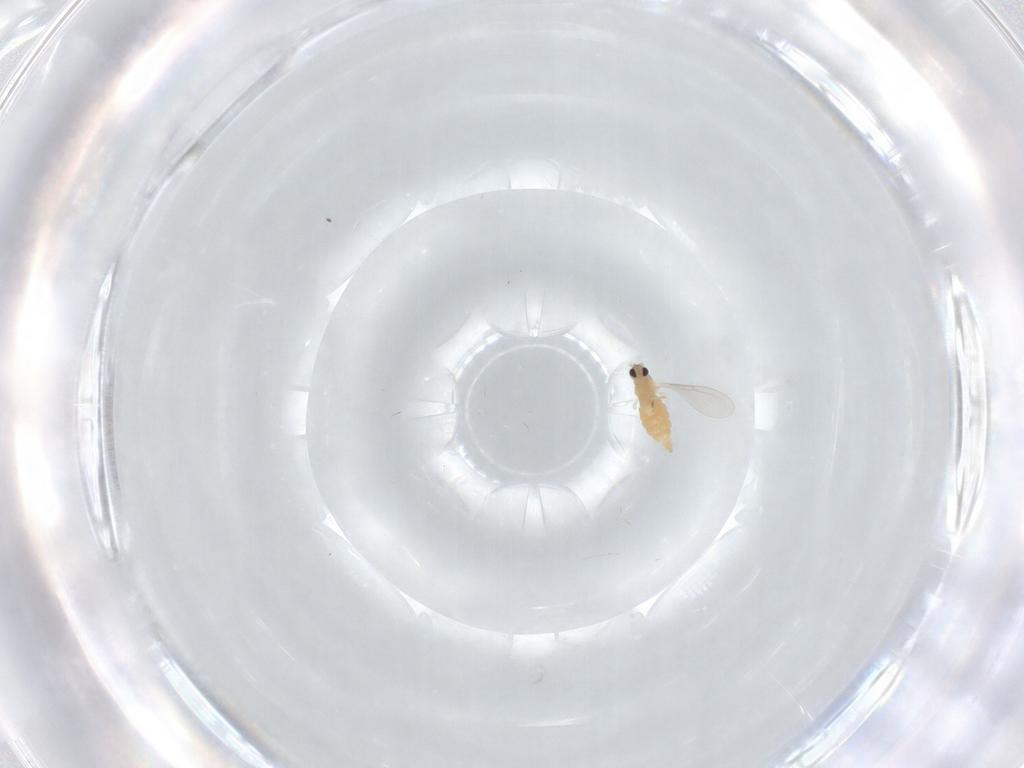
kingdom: Animalia
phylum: Arthropoda
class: Insecta
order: Diptera
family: Cecidomyiidae
